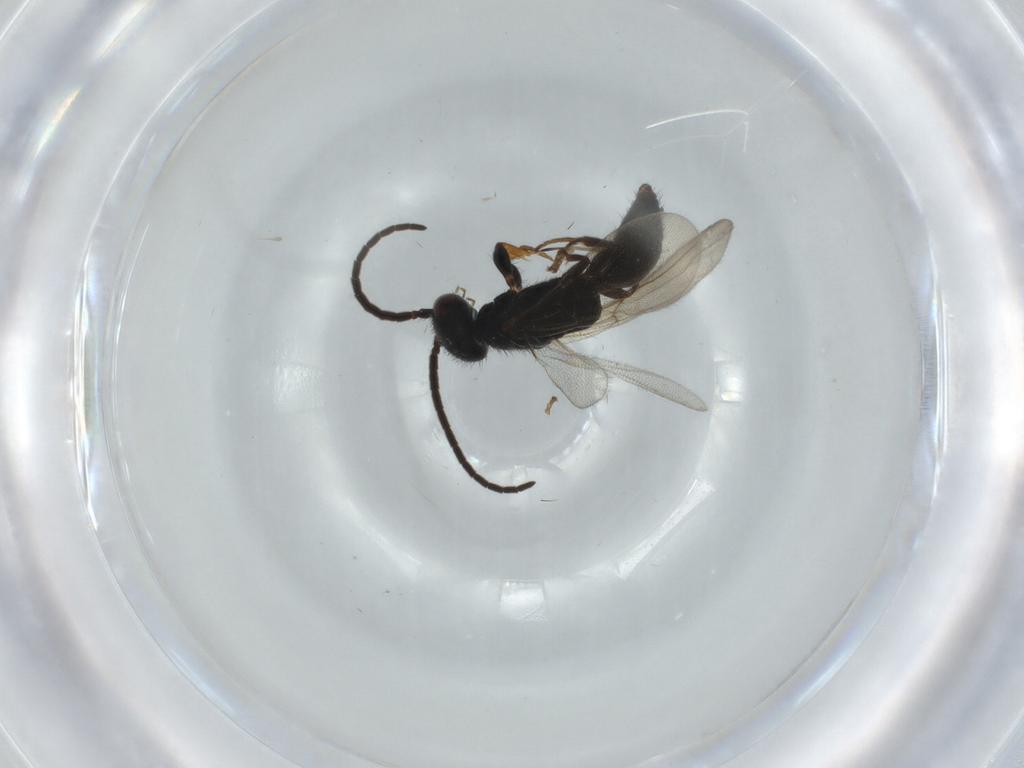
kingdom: Animalia
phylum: Arthropoda
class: Insecta
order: Hymenoptera
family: Bethylidae
